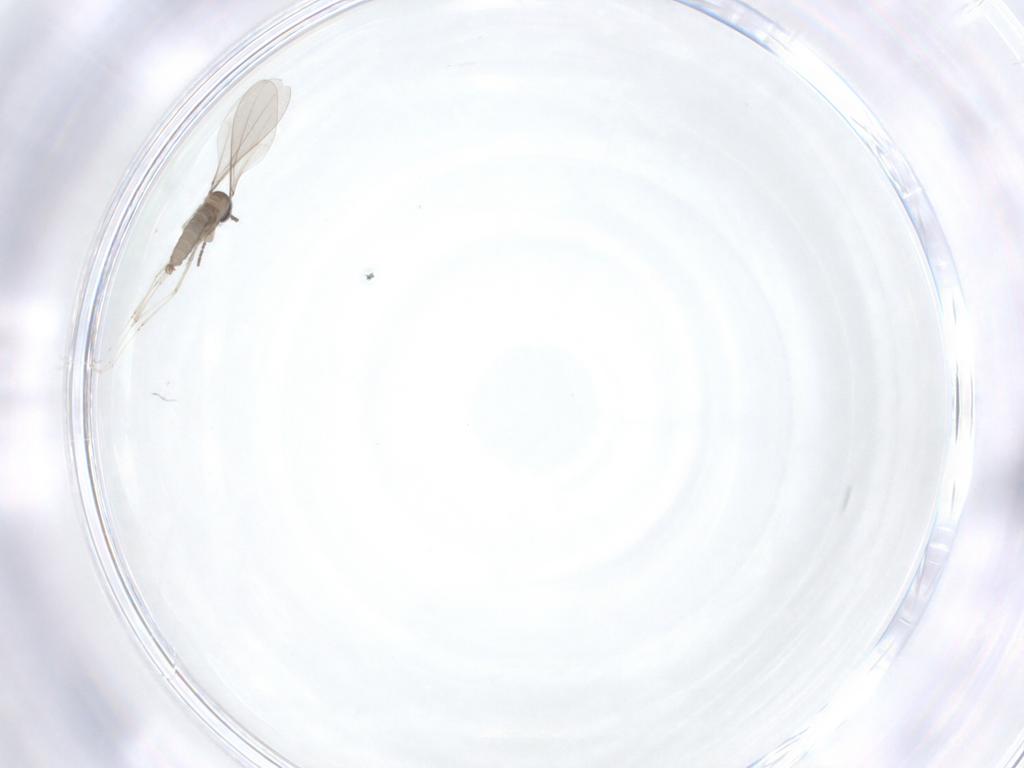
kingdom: Animalia
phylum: Arthropoda
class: Insecta
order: Diptera
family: Cecidomyiidae
